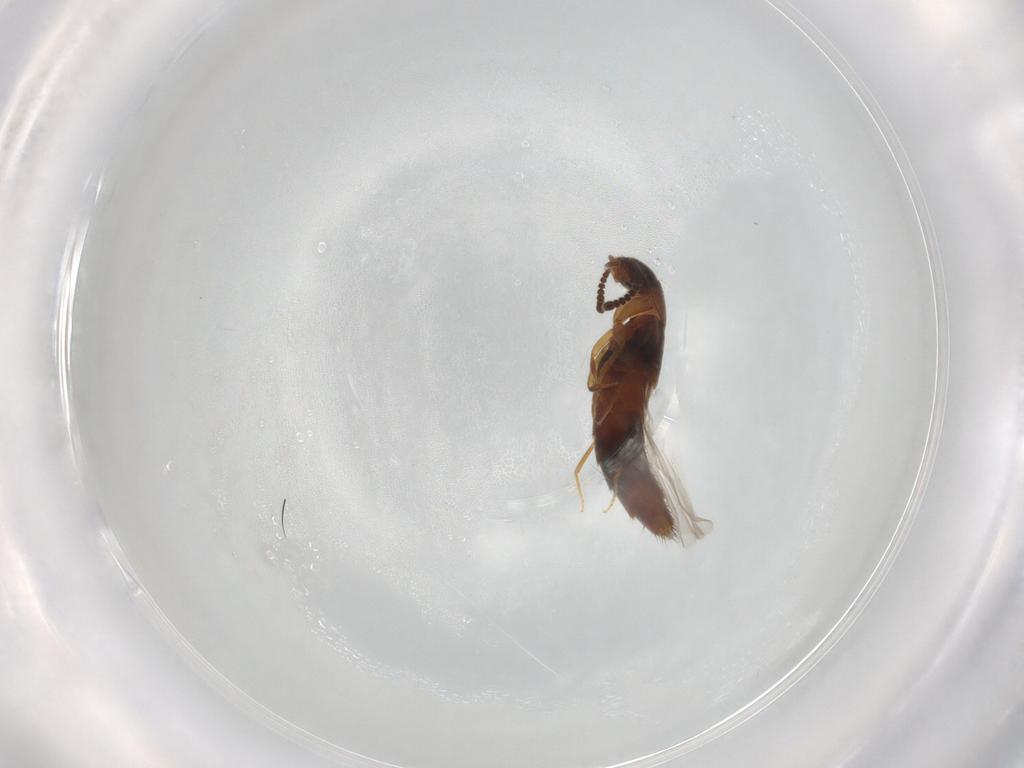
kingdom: Animalia
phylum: Arthropoda
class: Insecta
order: Coleoptera
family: Staphylinidae
